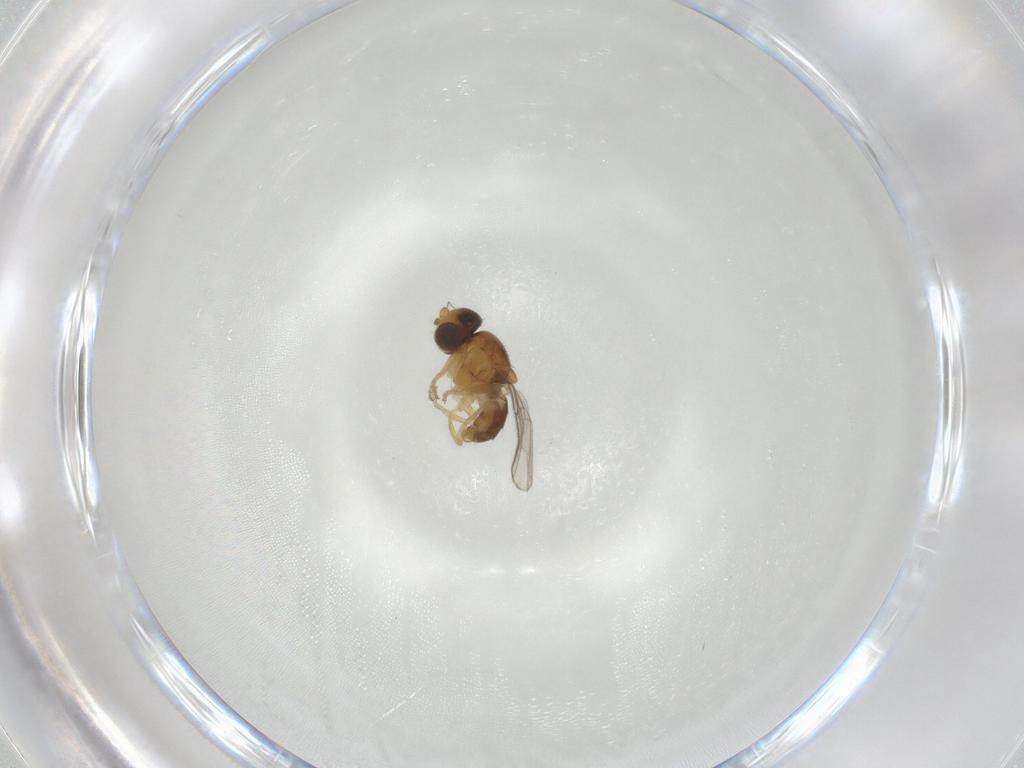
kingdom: Animalia
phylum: Arthropoda
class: Insecta
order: Diptera
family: Chloropidae
